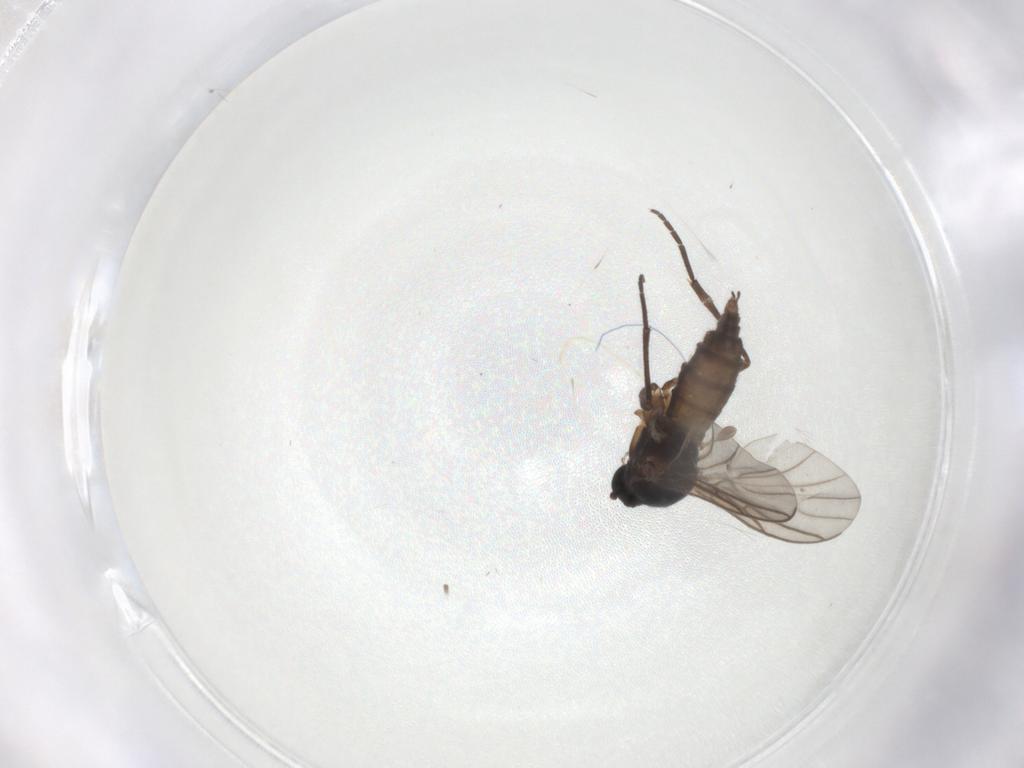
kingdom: Animalia
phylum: Arthropoda
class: Insecta
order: Diptera
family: Sciaridae
